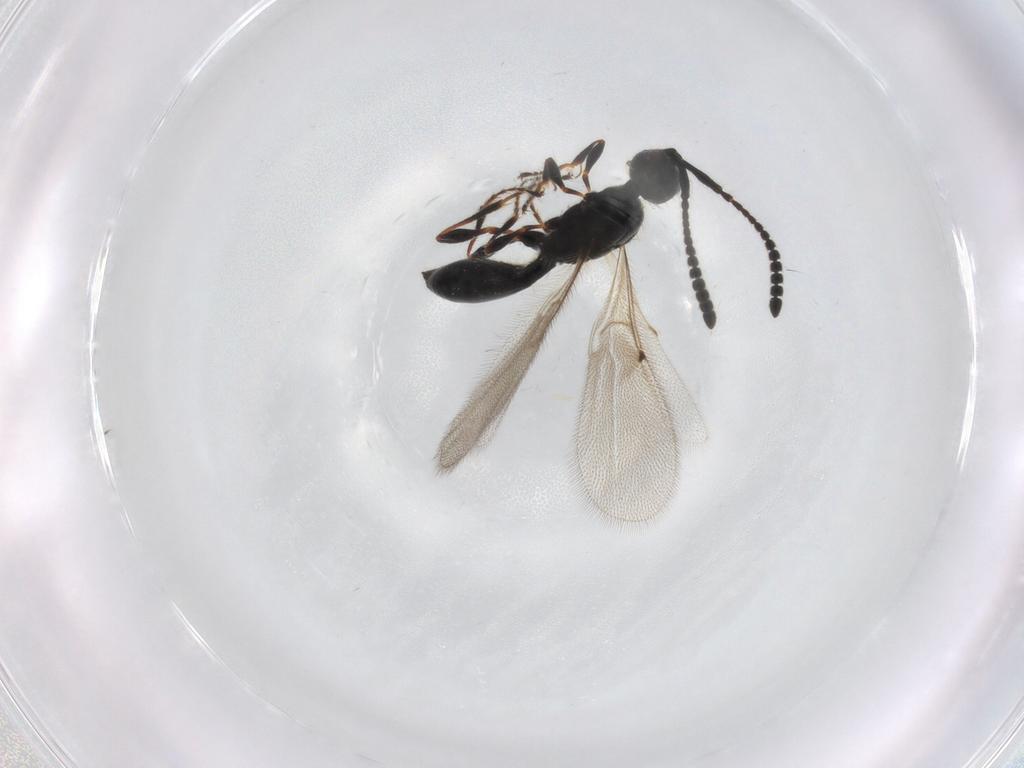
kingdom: Animalia
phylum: Arthropoda
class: Insecta
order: Hymenoptera
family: Diapriidae
